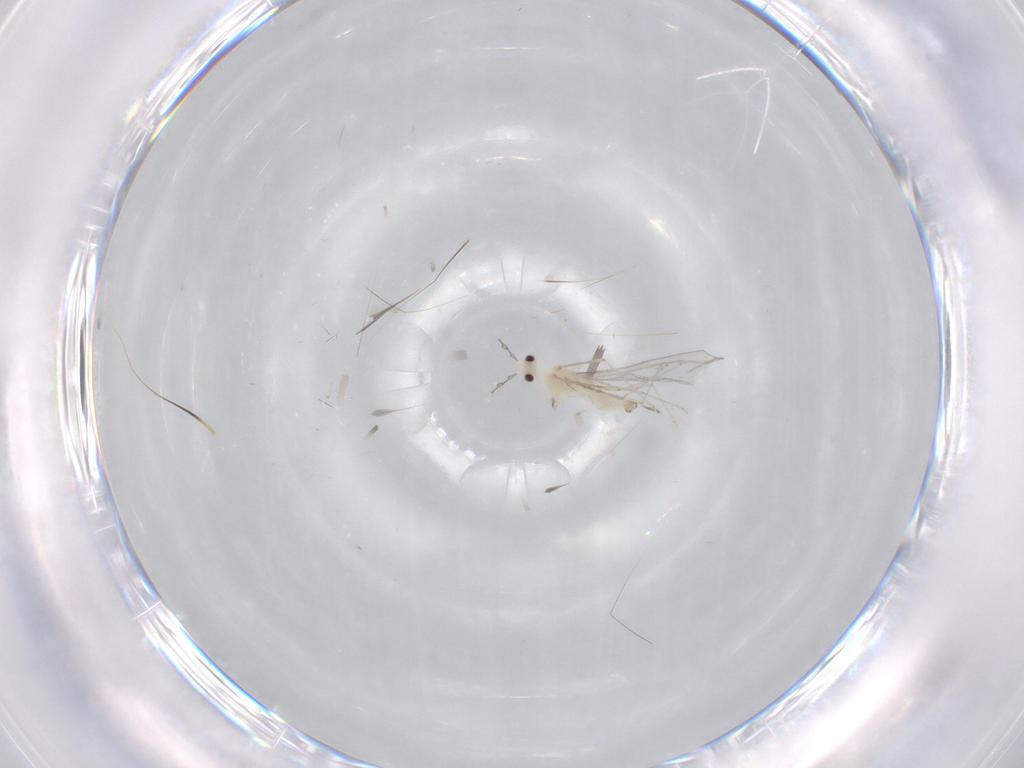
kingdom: Animalia
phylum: Arthropoda
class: Insecta
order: Diptera
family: Cecidomyiidae
